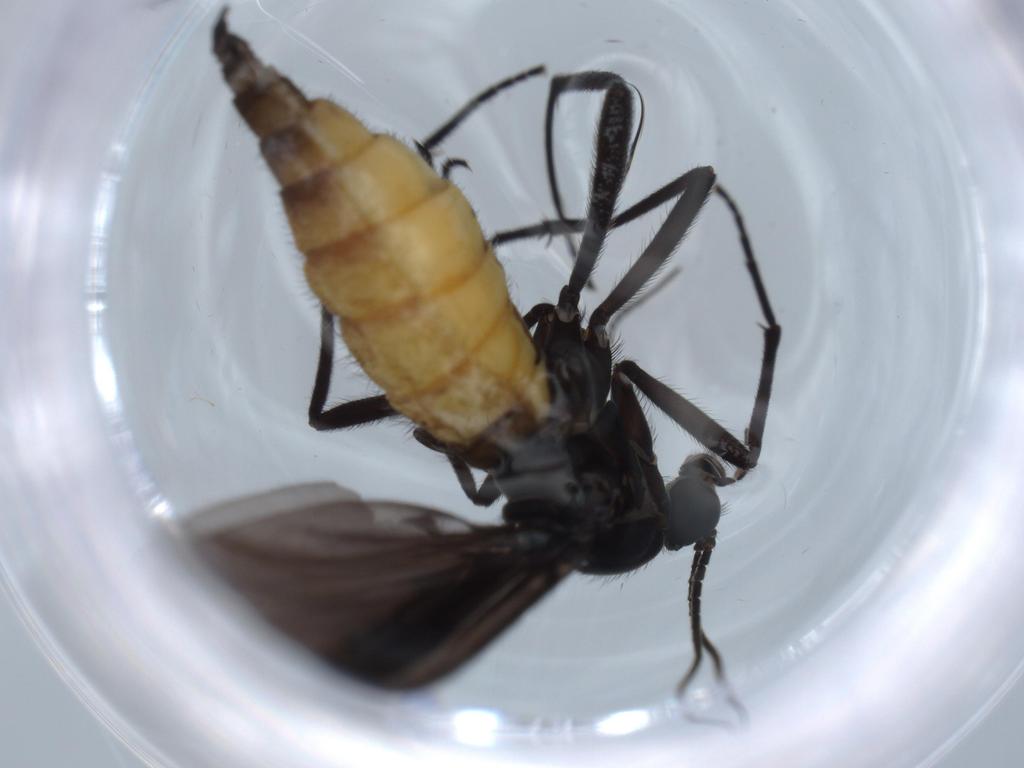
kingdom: Animalia
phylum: Arthropoda
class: Insecta
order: Diptera
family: Sciaridae
